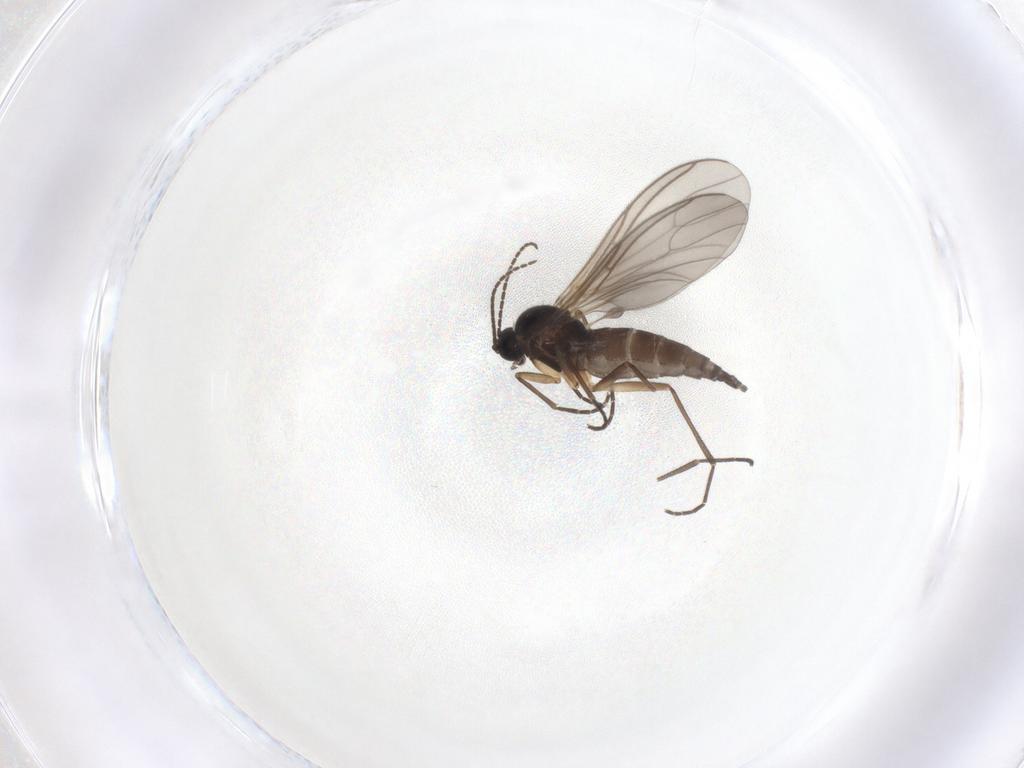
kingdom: Animalia
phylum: Arthropoda
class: Insecta
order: Diptera
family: Sciaridae
